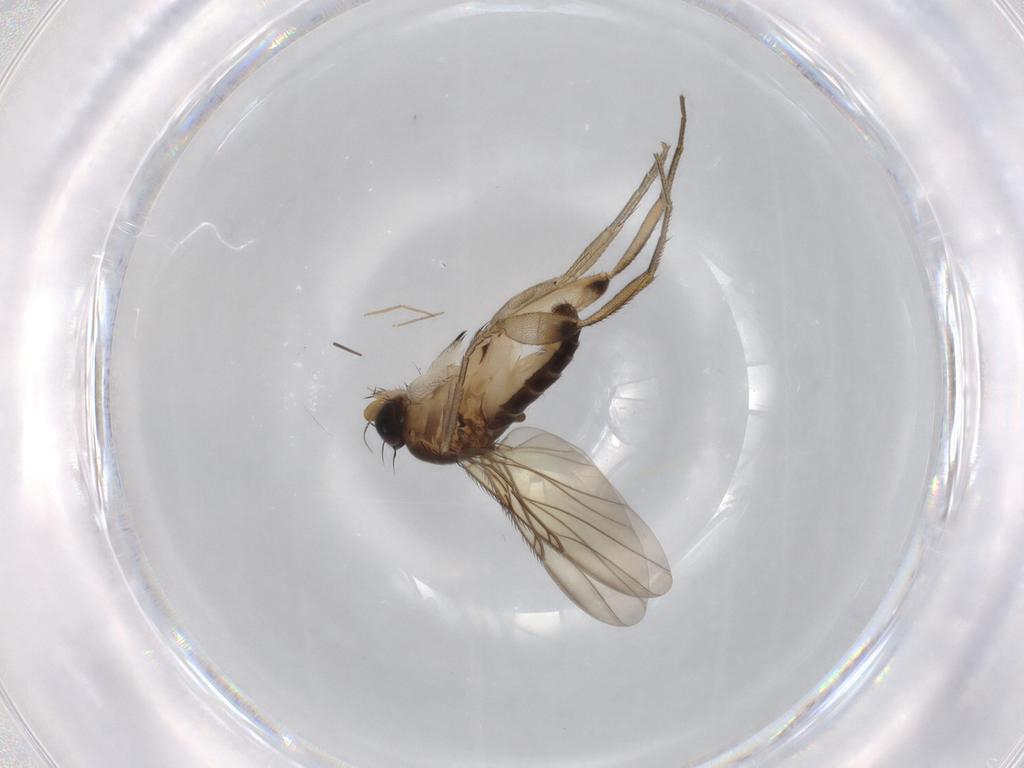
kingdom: Animalia
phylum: Arthropoda
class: Insecta
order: Diptera
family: Phoridae
